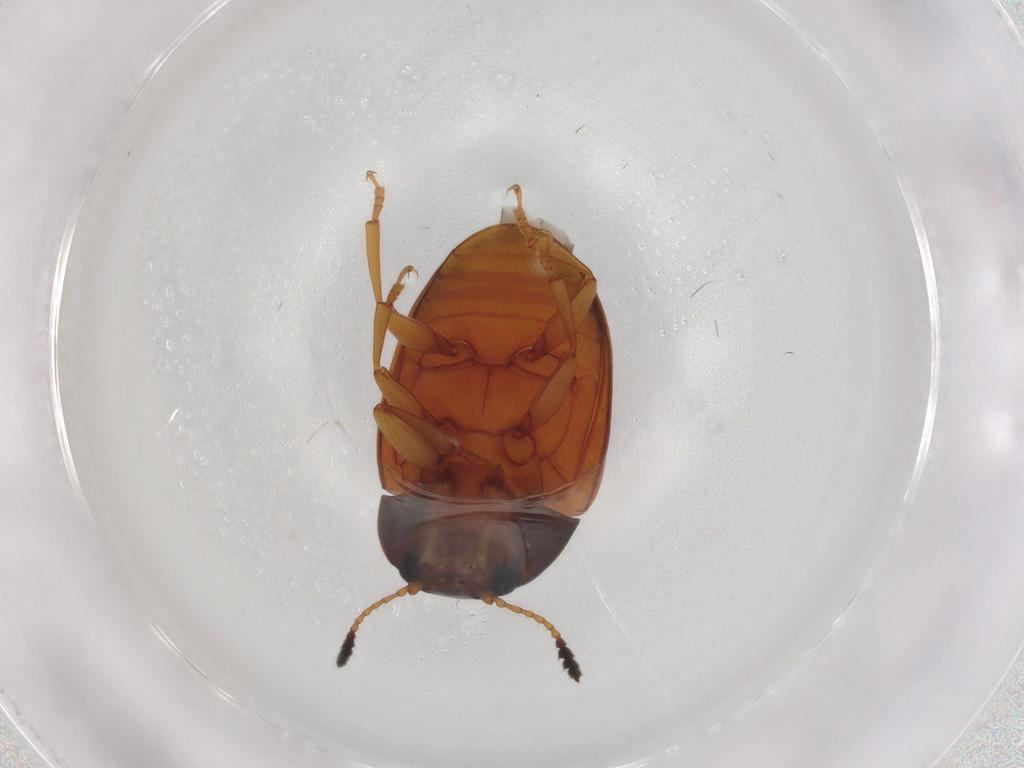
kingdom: Animalia
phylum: Arthropoda
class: Insecta
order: Coleoptera
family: Erotylidae
